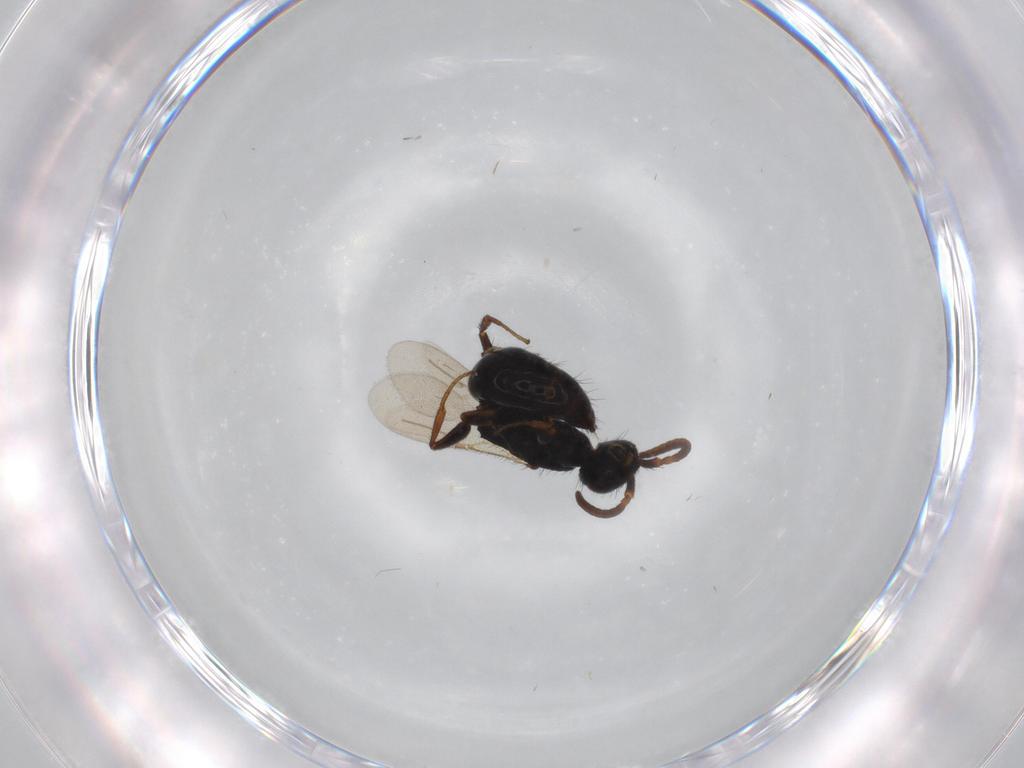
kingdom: Animalia
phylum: Arthropoda
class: Insecta
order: Hymenoptera
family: Bethylidae
